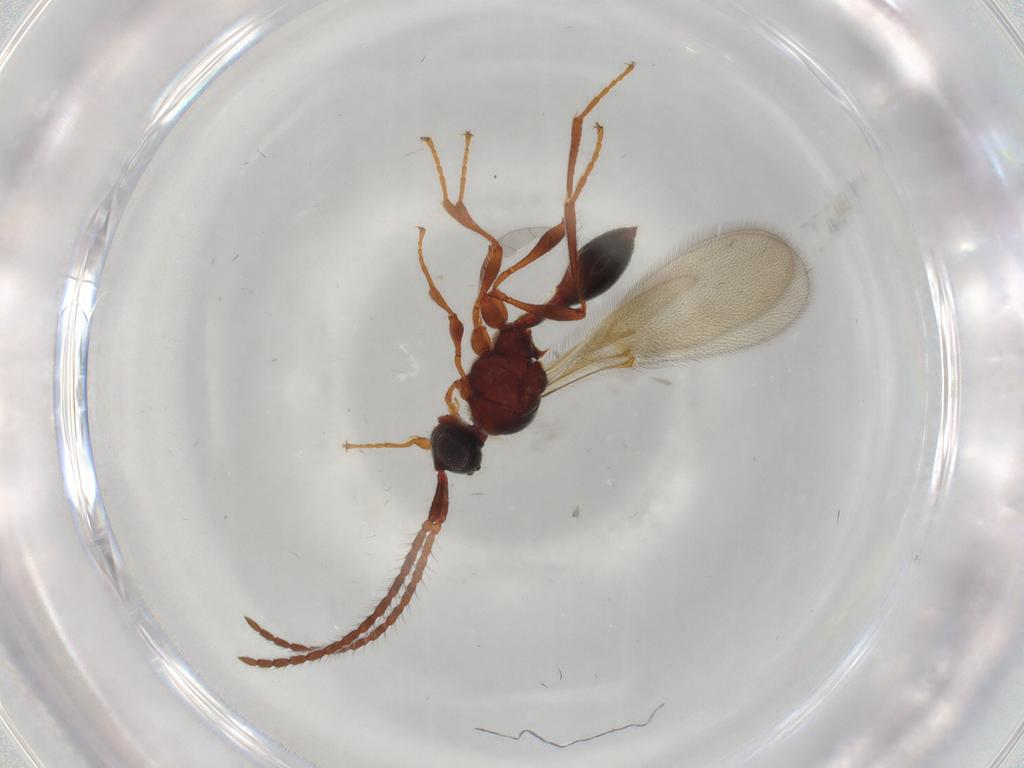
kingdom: Animalia
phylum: Arthropoda
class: Insecta
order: Hymenoptera
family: Diapriidae
